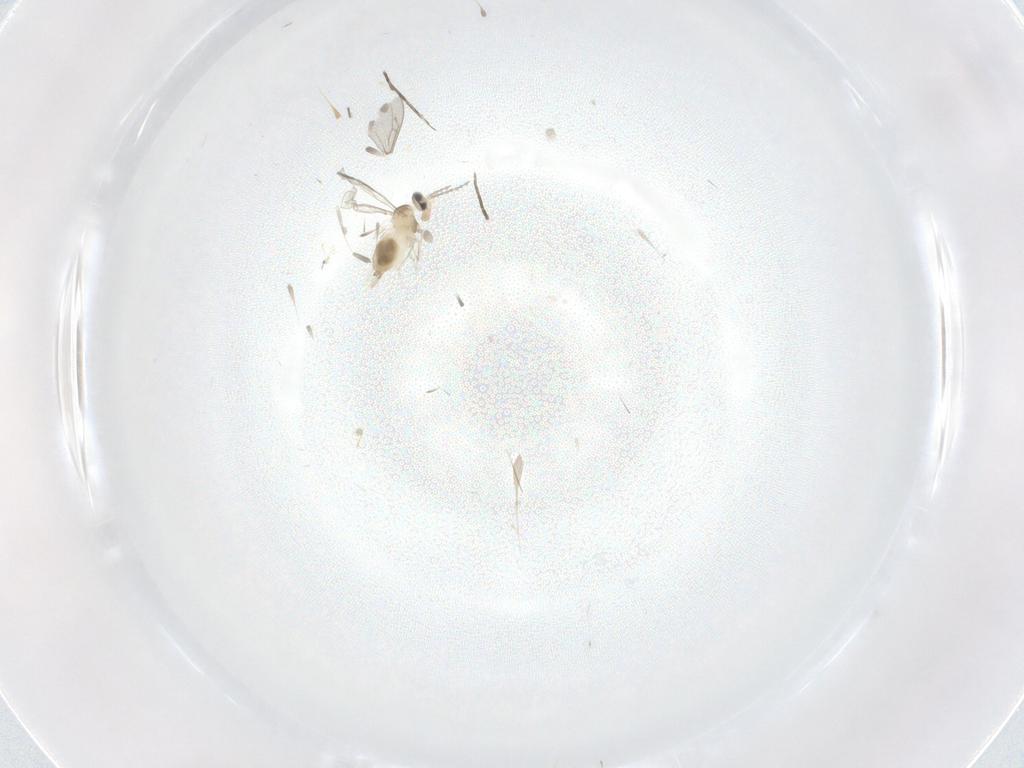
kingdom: Animalia
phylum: Arthropoda
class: Insecta
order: Diptera
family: Cecidomyiidae
